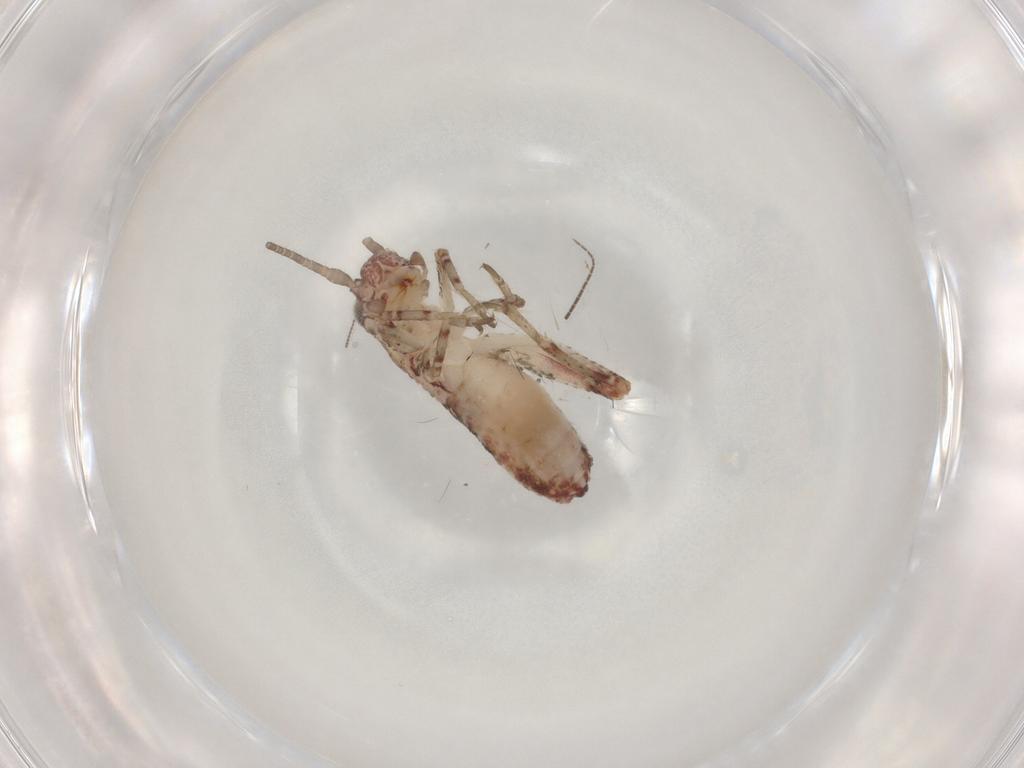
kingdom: Animalia
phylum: Arthropoda
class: Insecta
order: Orthoptera
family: Mogoplistidae
